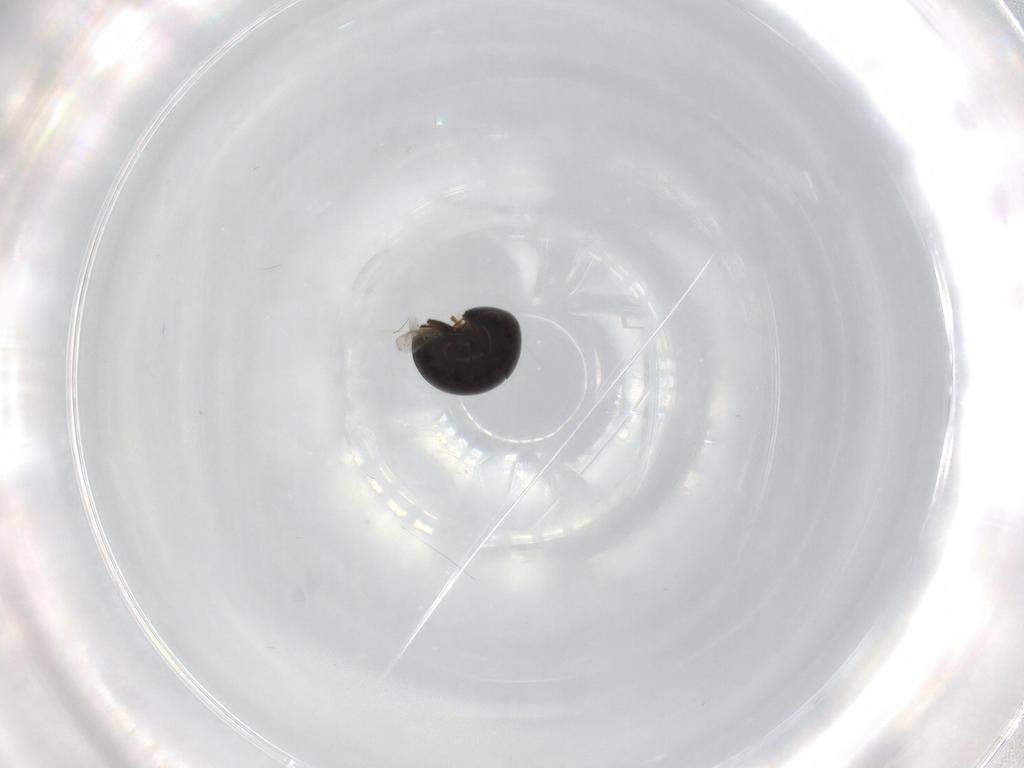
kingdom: Animalia
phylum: Arthropoda
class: Insecta
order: Coleoptera
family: Cybocephalidae
